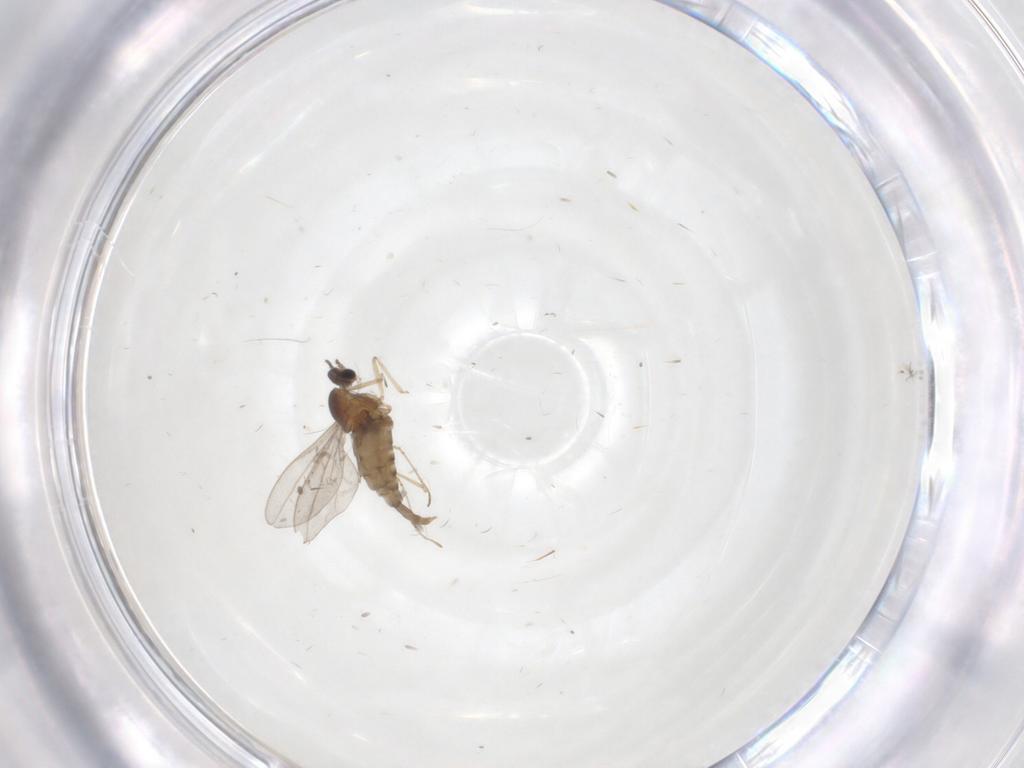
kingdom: Animalia
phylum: Arthropoda
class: Insecta
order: Diptera
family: Cecidomyiidae
